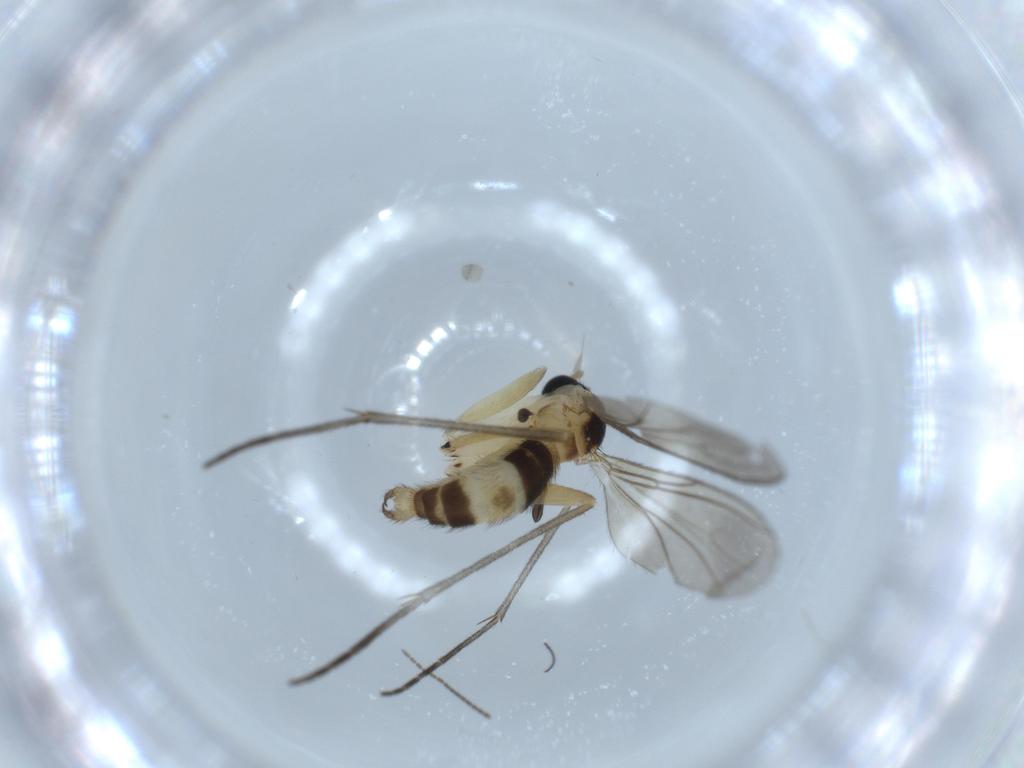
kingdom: Animalia
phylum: Arthropoda
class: Insecta
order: Diptera
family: Sciaridae
